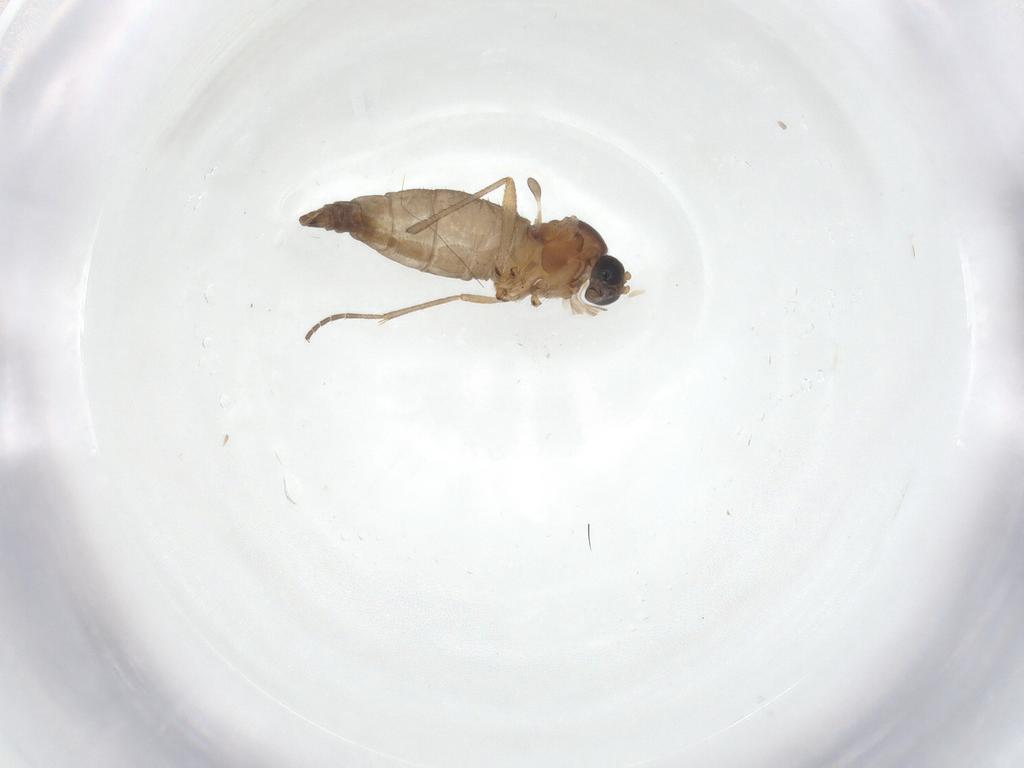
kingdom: Animalia
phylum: Arthropoda
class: Insecta
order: Diptera
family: Sciaridae
